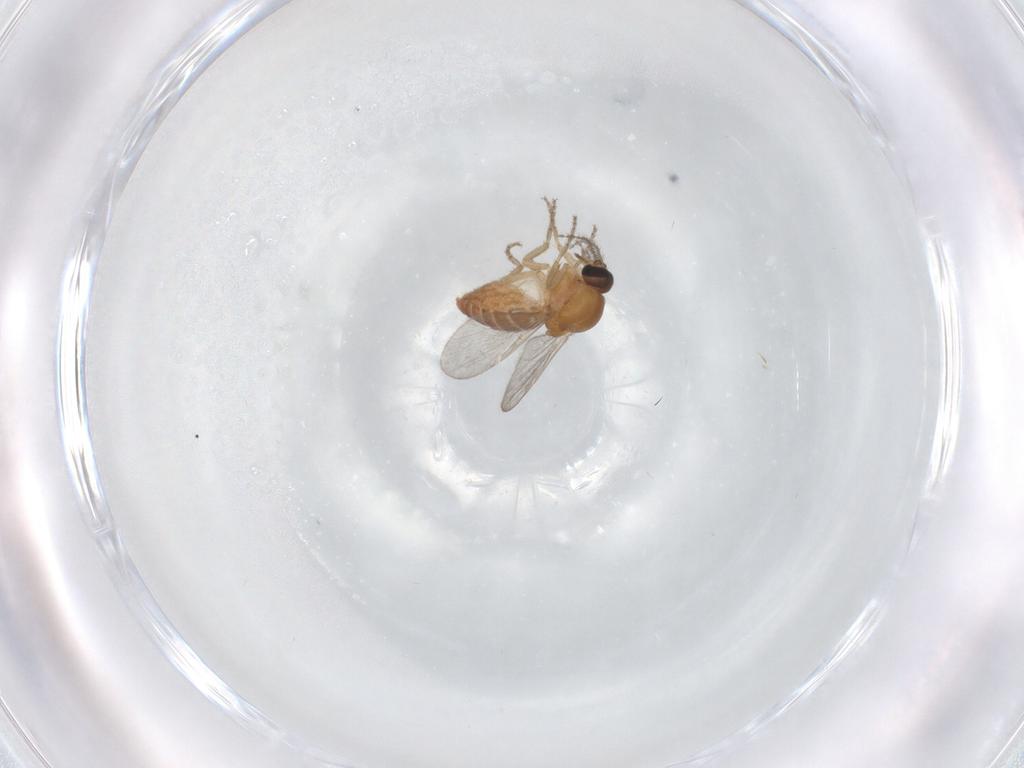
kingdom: Animalia
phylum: Arthropoda
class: Insecta
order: Diptera
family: Ceratopogonidae
